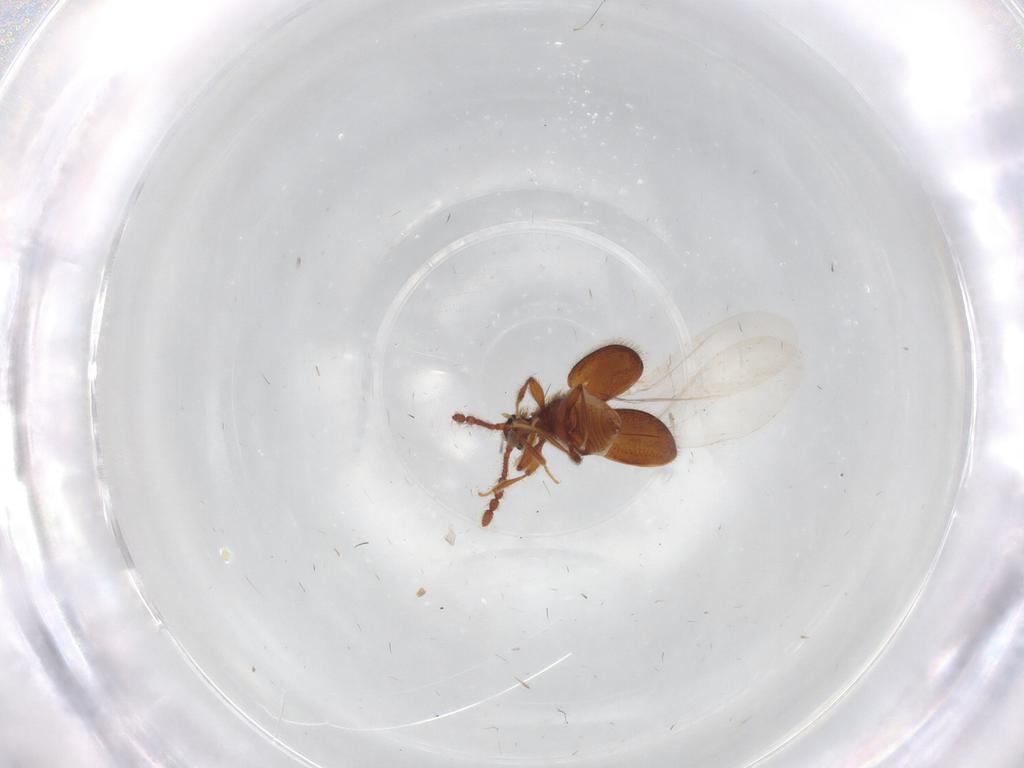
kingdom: Animalia
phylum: Arthropoda
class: Insecta
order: Coleoptera
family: Staphylinidae
